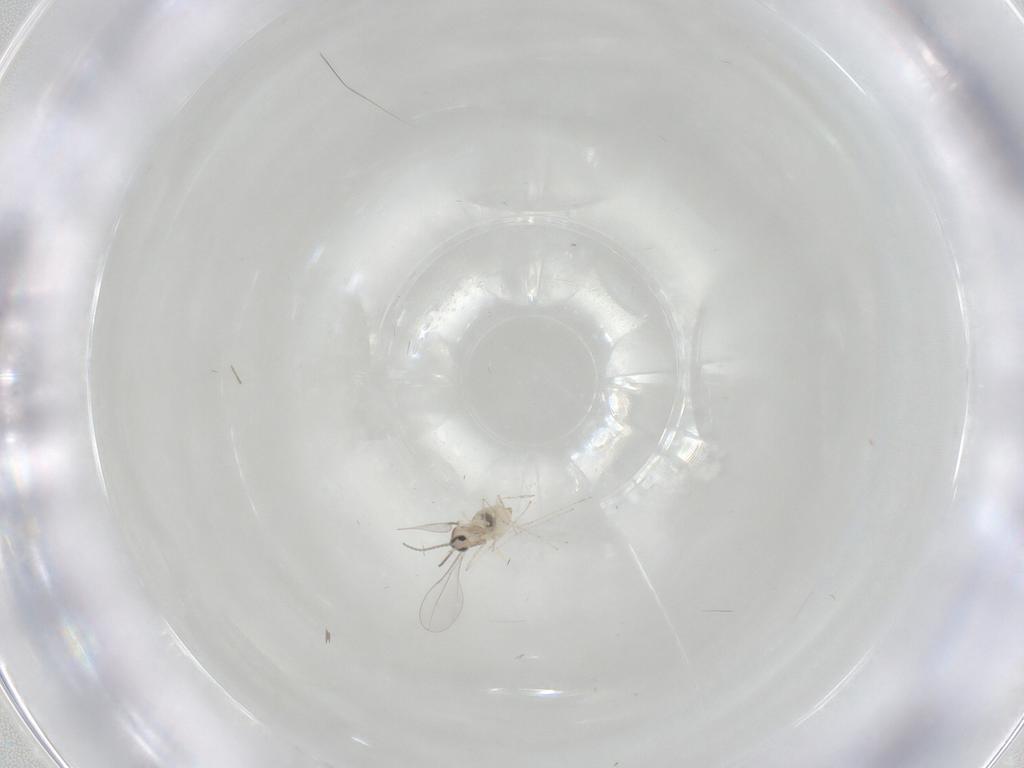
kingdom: Animalia
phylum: Arthropoda
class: Insecta
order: Diptera
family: Cecidomyiidae
